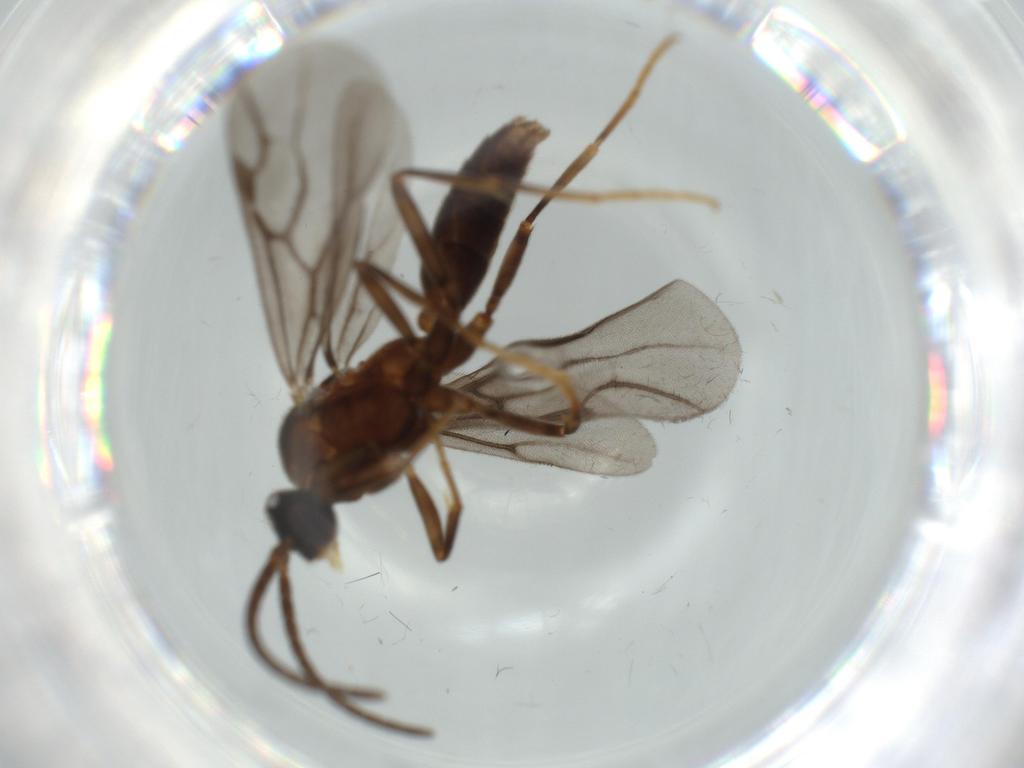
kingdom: Animalia
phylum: Arthropoda
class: Insecta
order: Hymenoptera
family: Formicidae
